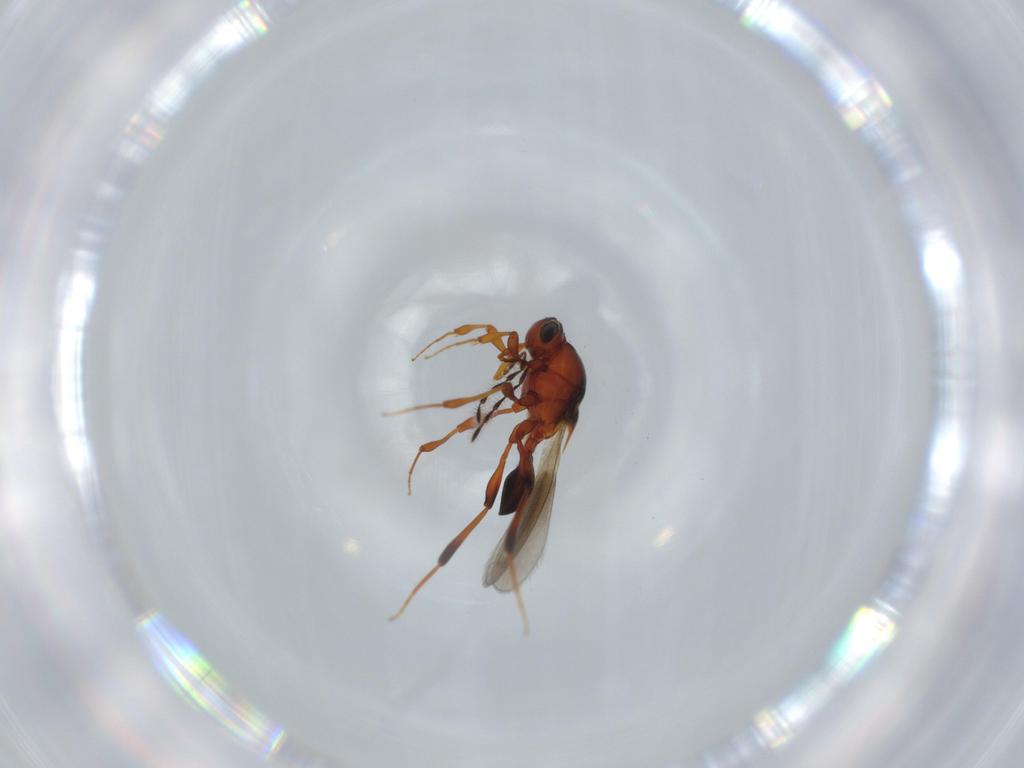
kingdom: Animalia
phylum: Arthropoda
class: Insecta
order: Hymenoptera
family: Platygastridae
